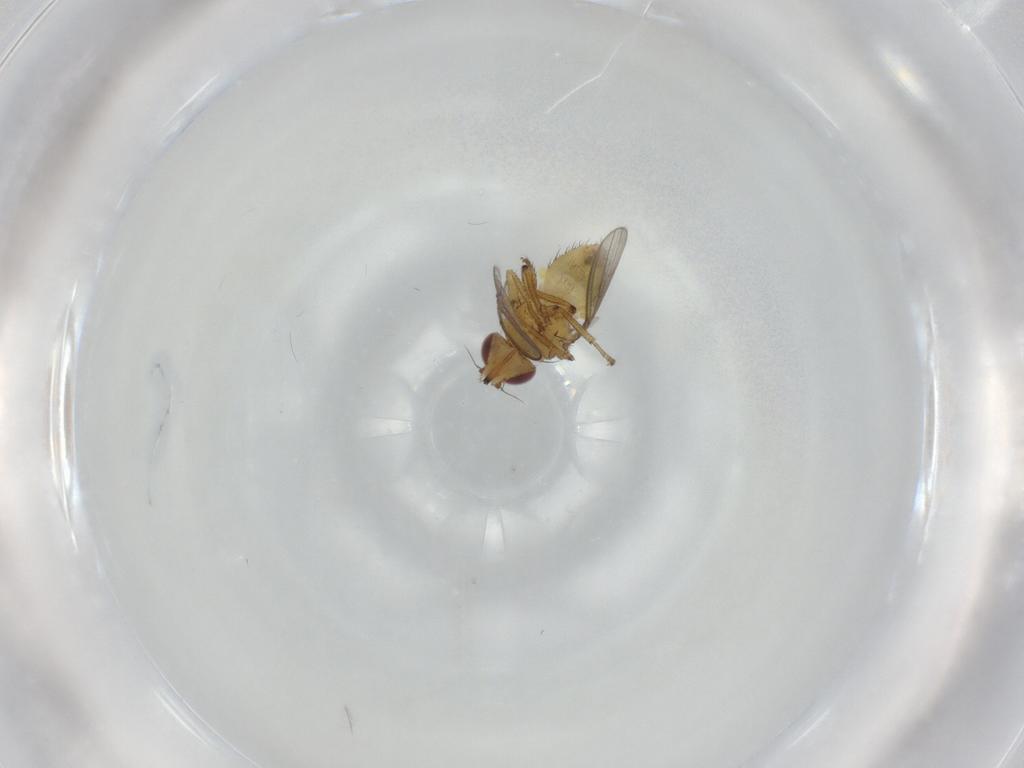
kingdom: Animalia
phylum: Arthropoda
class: Insecta
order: Diptera
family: Milichiidae
